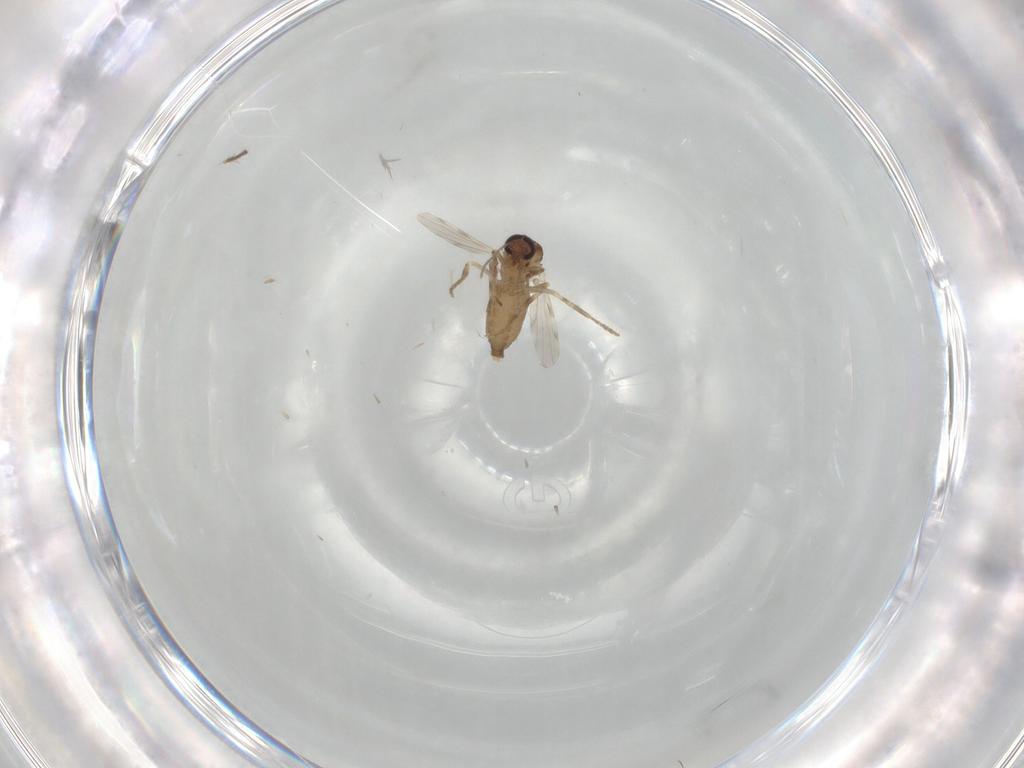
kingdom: Animalia
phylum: Arthropoda
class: Insecta
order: Diptera
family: Ceratopogonidae
